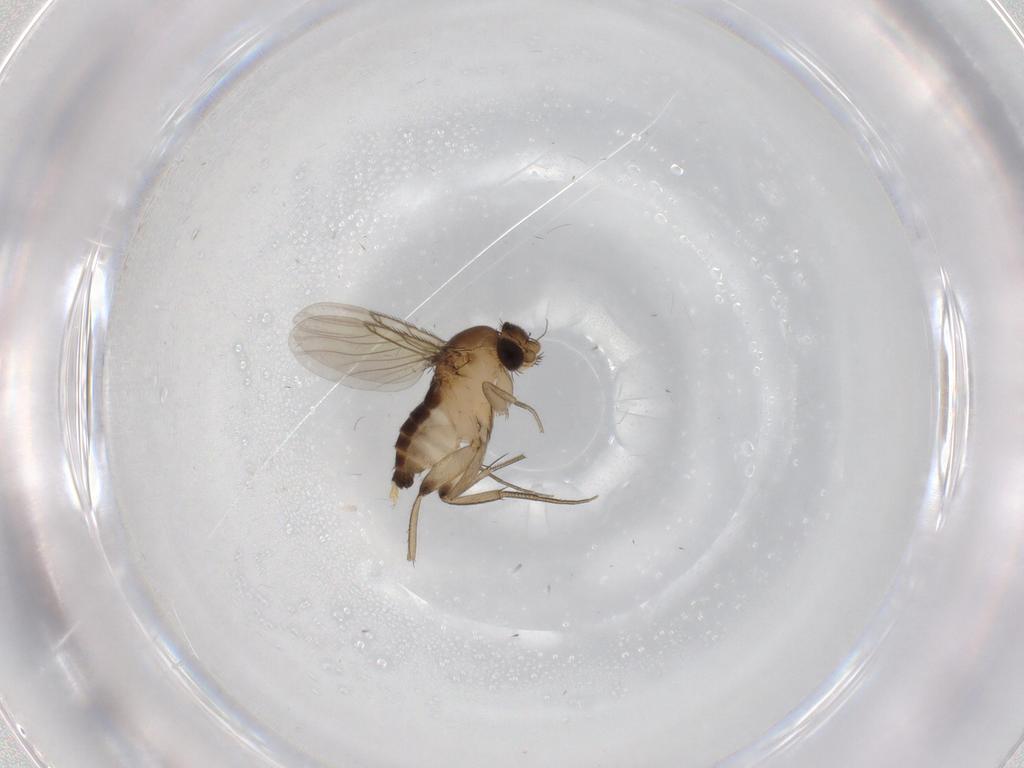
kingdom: Animalia
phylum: Arthropoda
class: Insecta
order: Diptera
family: Phoridae
